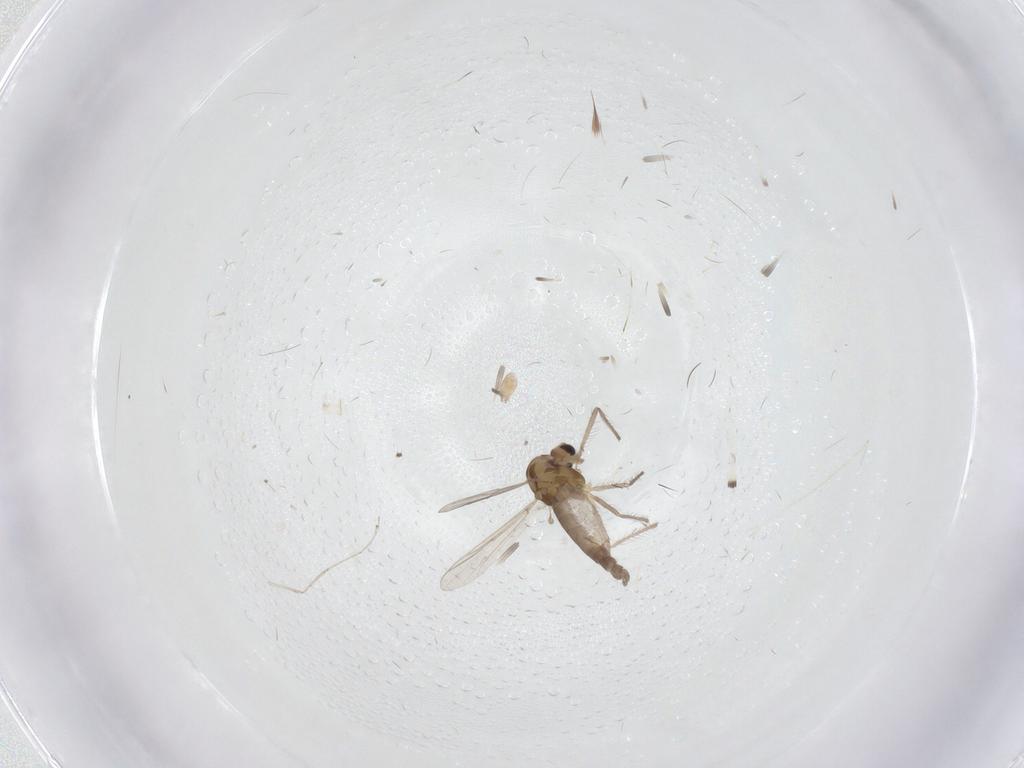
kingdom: Animalia
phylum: Arthropoda
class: Insecta
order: Diptera
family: Chironomidae
